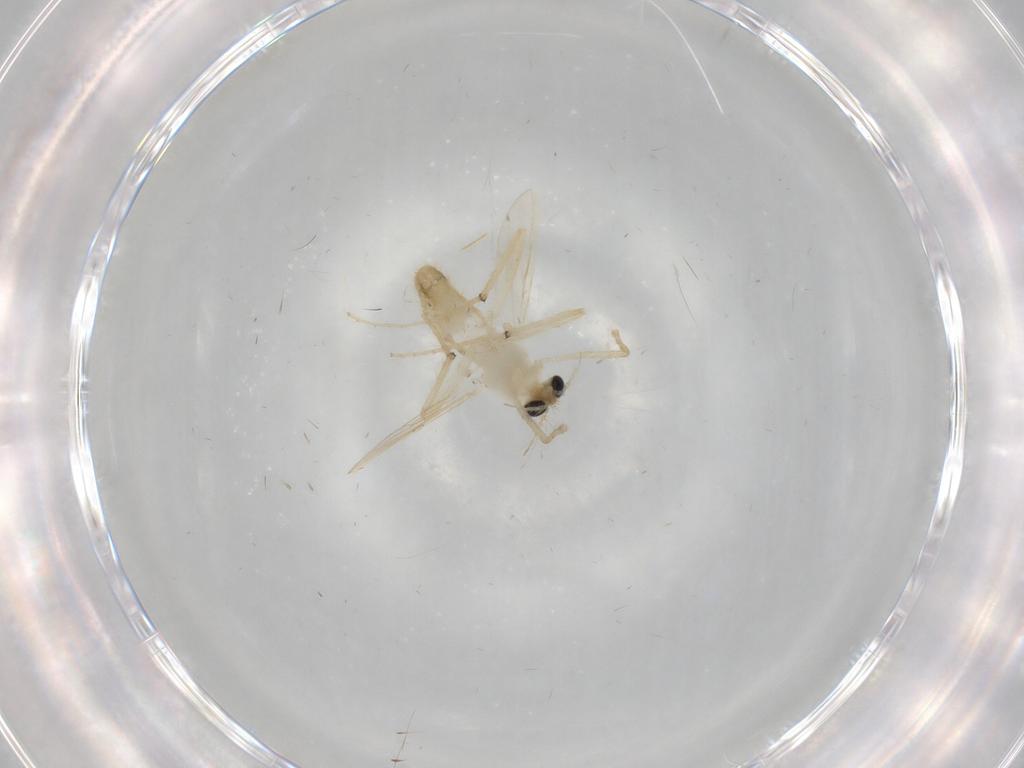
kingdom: Animalia
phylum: Arthropoda
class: Insecta
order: Diptera
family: Chironomidae
